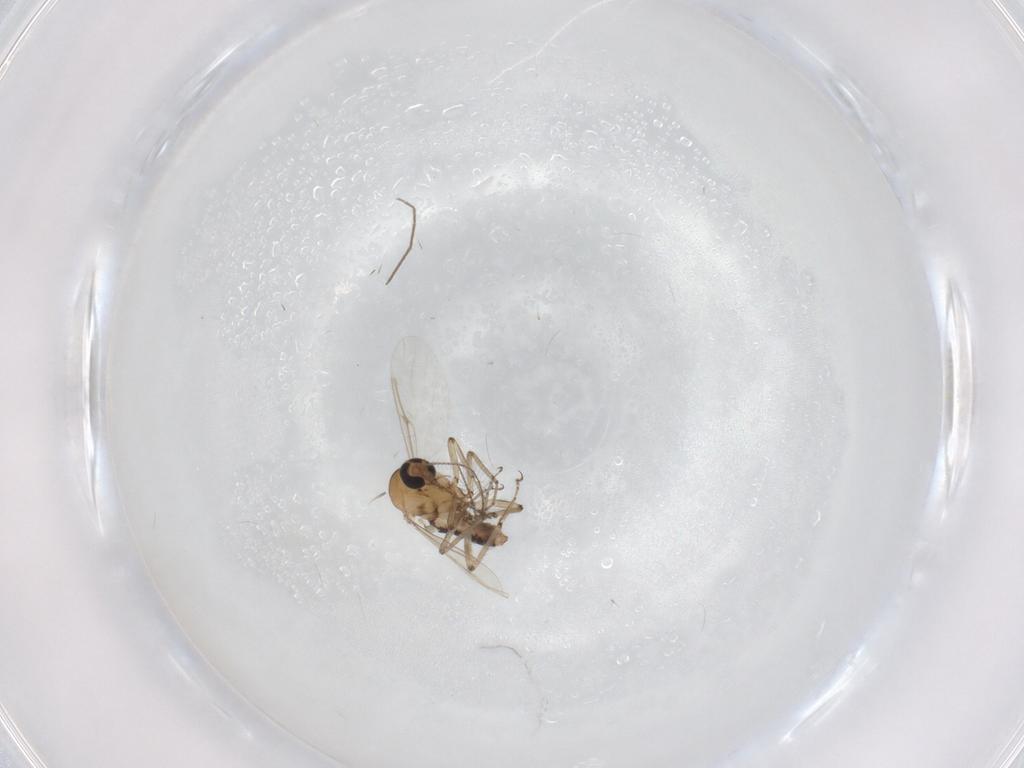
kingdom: Animalia
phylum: Arthropoda
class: Insecta
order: Diptera
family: Chironomidae
